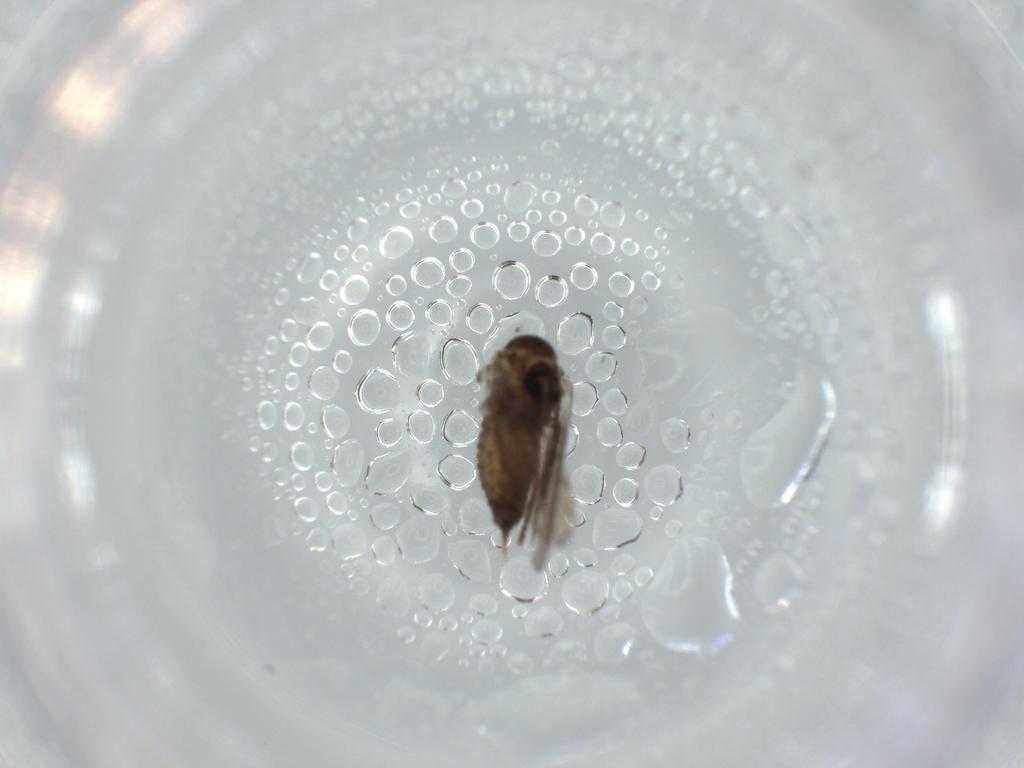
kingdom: Animalia
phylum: Arthropoda
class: Insecta
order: Diptera
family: Psychodidae
